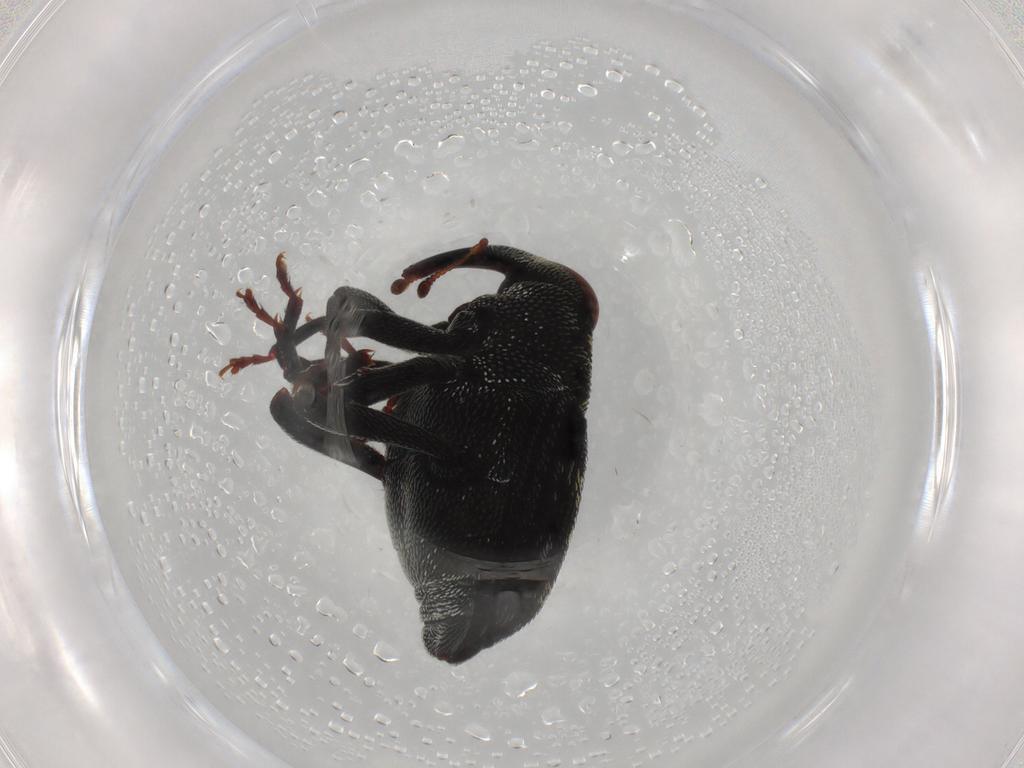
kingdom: Animalia
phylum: Arthropoda
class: Insecta
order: Coleoptera
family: Curculionidae
